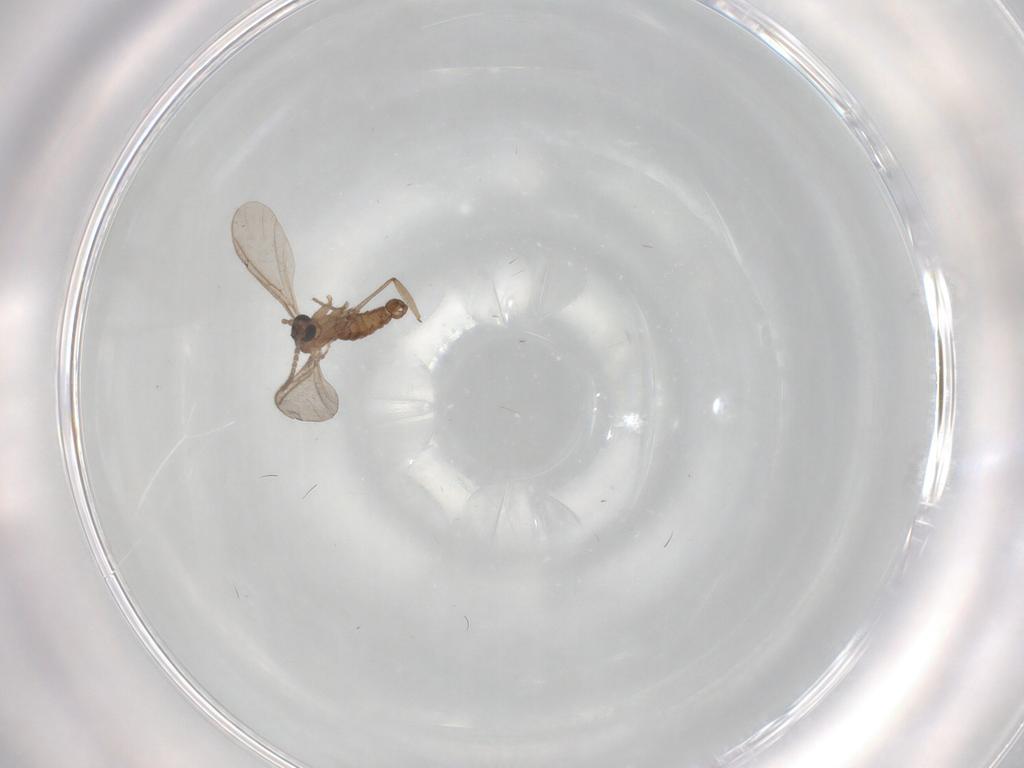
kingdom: Animalia
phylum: Arthropoda
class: Insecta
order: Diptera
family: Sciaridae
